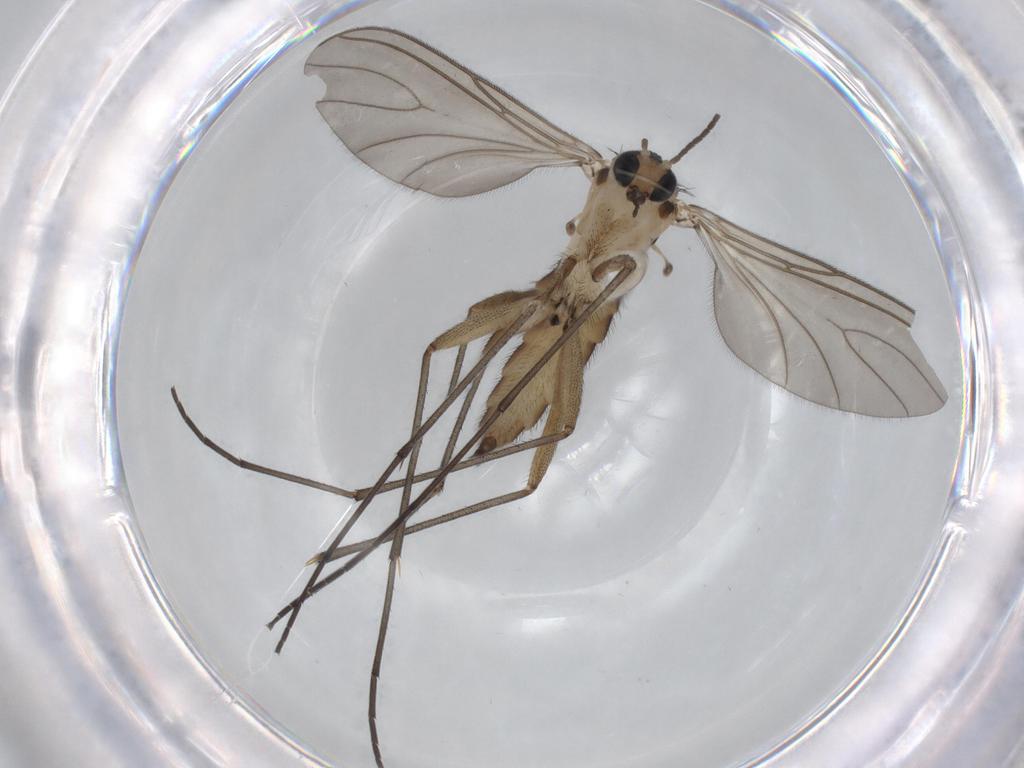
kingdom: Animalia
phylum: Arthropoda
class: Insecta
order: Diptera
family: Sciaridae
